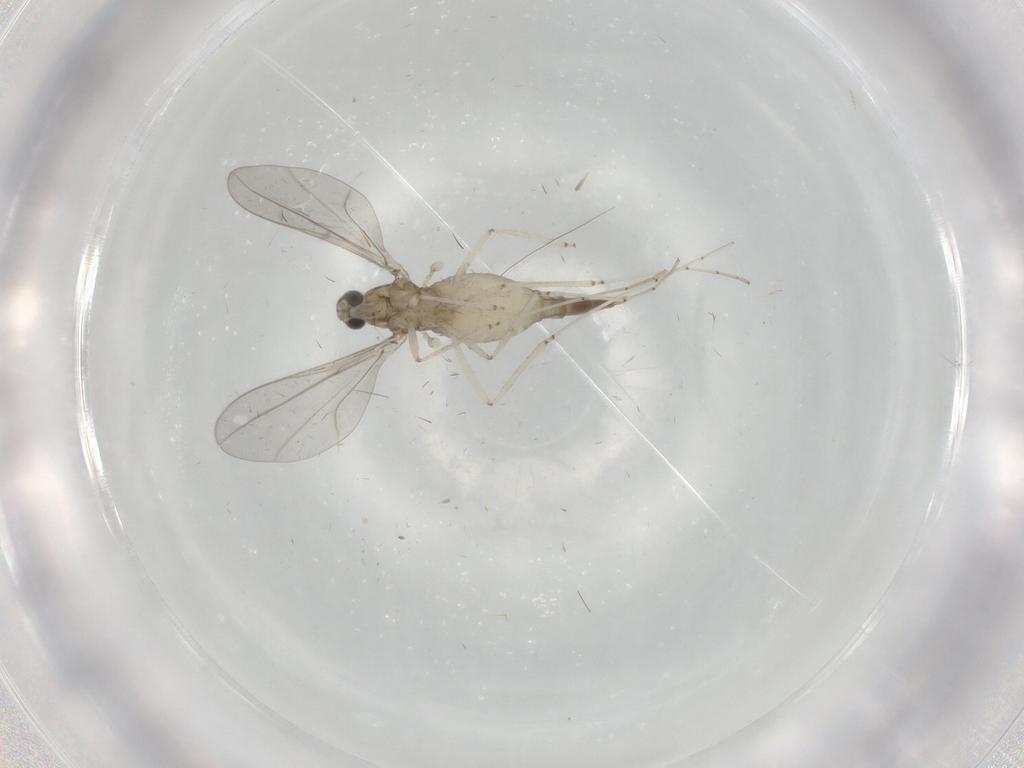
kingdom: Animalia
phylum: Arthropoda
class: Insecta
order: Diptera
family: Cecidomyiidae
